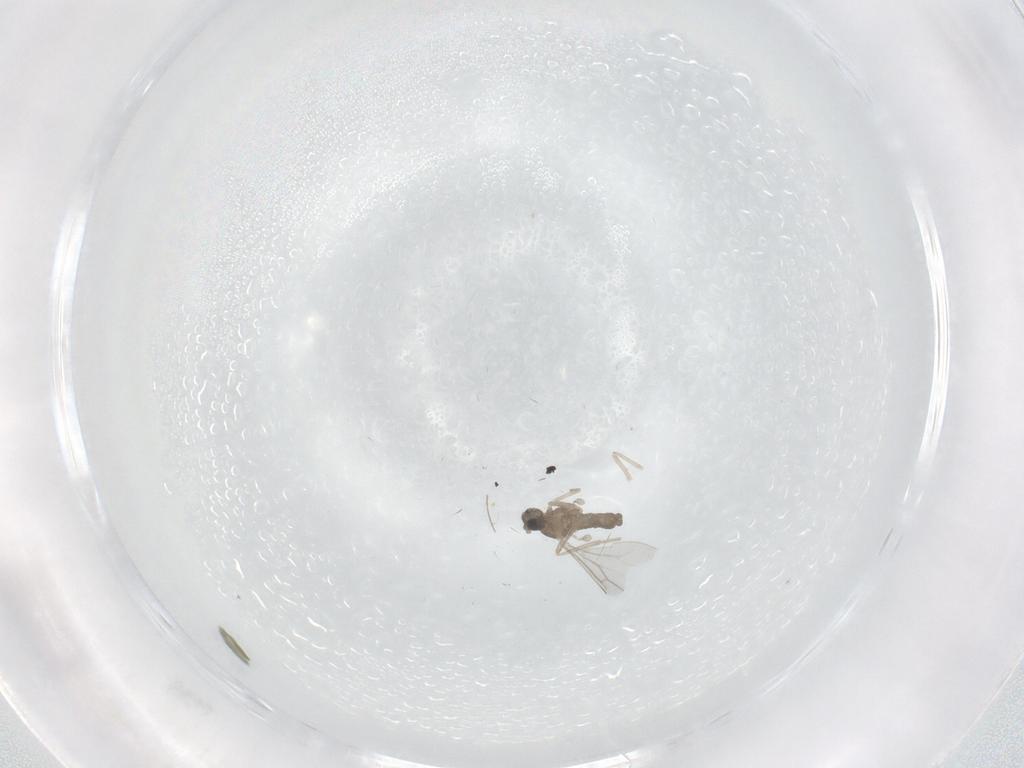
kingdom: Animalia
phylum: Arthropoda
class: Insecta
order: Diptera
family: Cecidomyiidae
